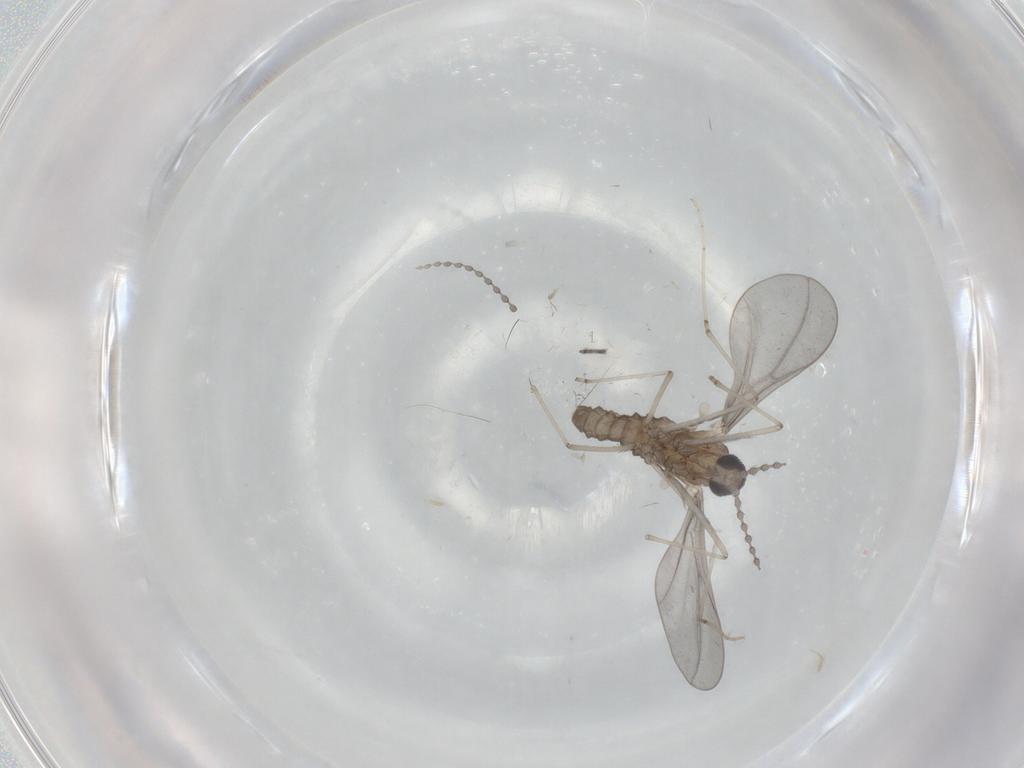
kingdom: Animalia
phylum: Arthropoda
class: Insecta
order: Diptera
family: Cecidomyiidae
